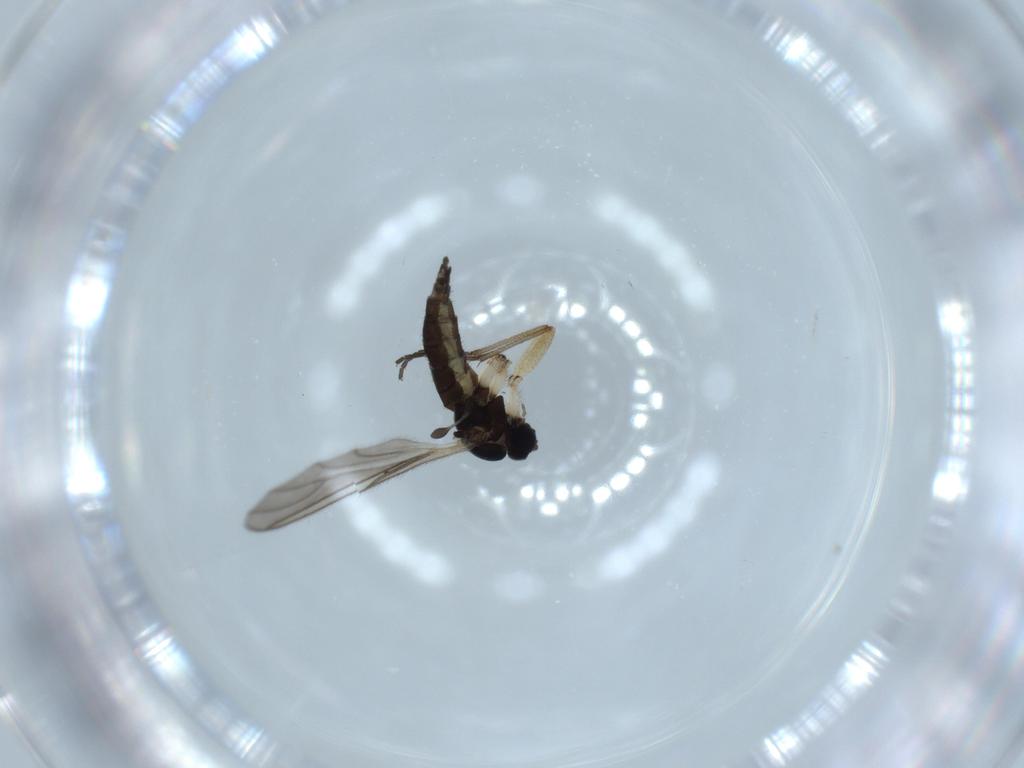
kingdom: Animalia
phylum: Arthropoda
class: Insecta
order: Diptera
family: Sciaridae
